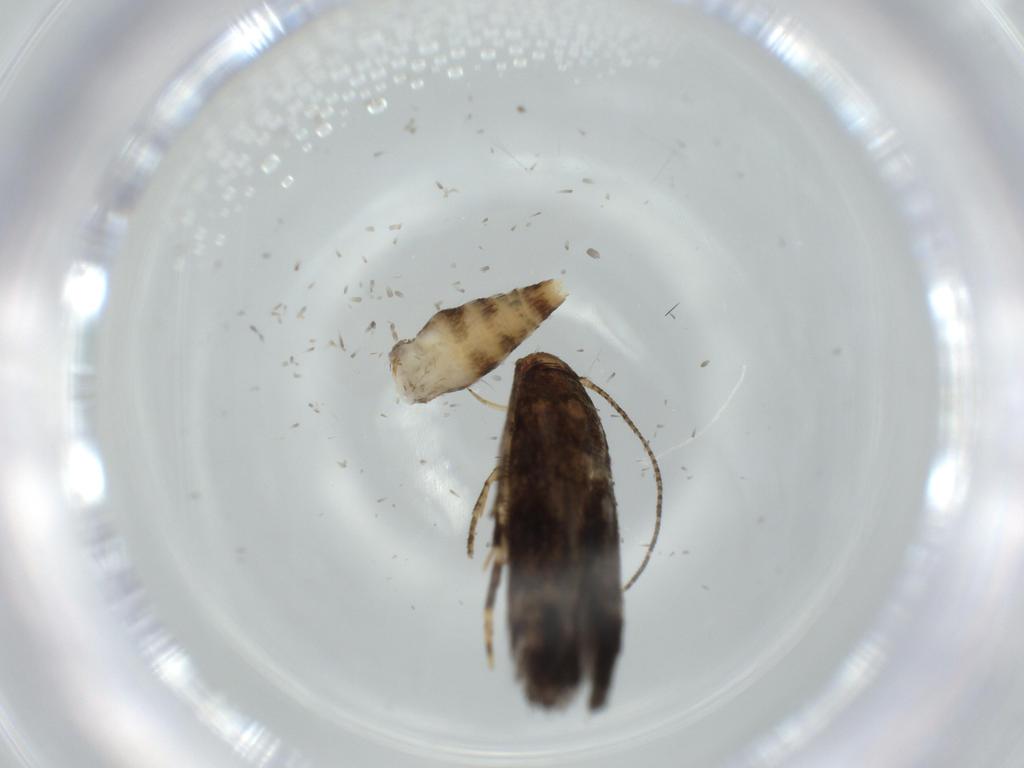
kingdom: Animalia
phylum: Arthropoda
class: Insecta
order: Lepidoptera
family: Momphidae
